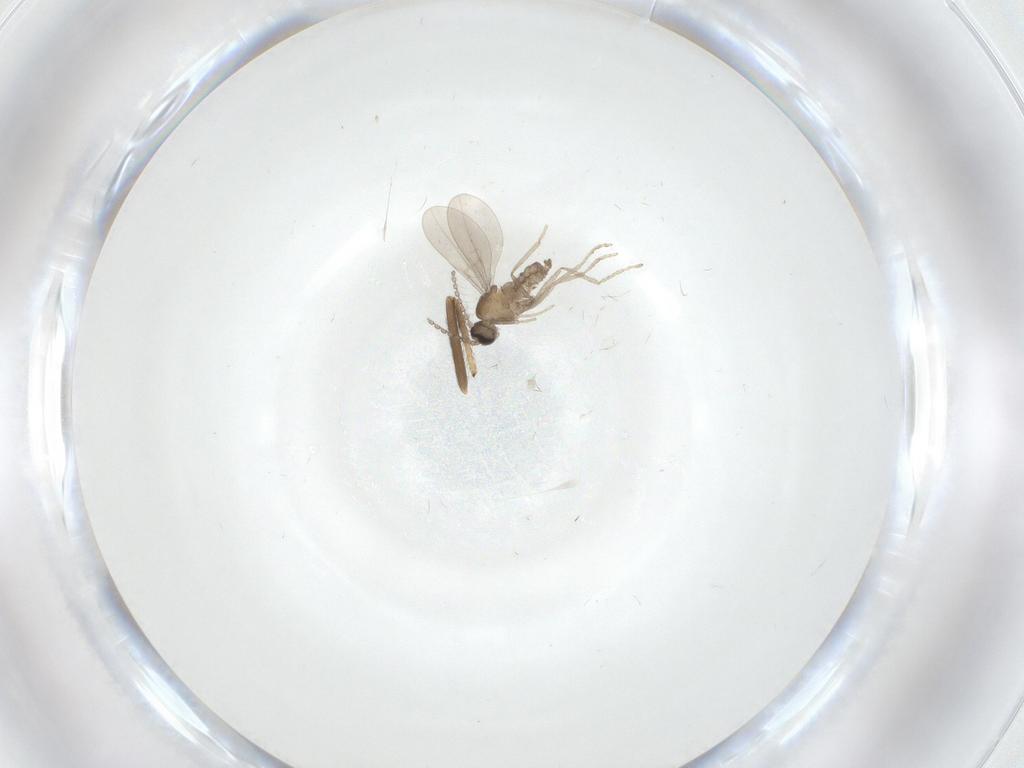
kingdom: Animalia
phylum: Arthropoda
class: Insecta
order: Diptera
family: Chironomidae
